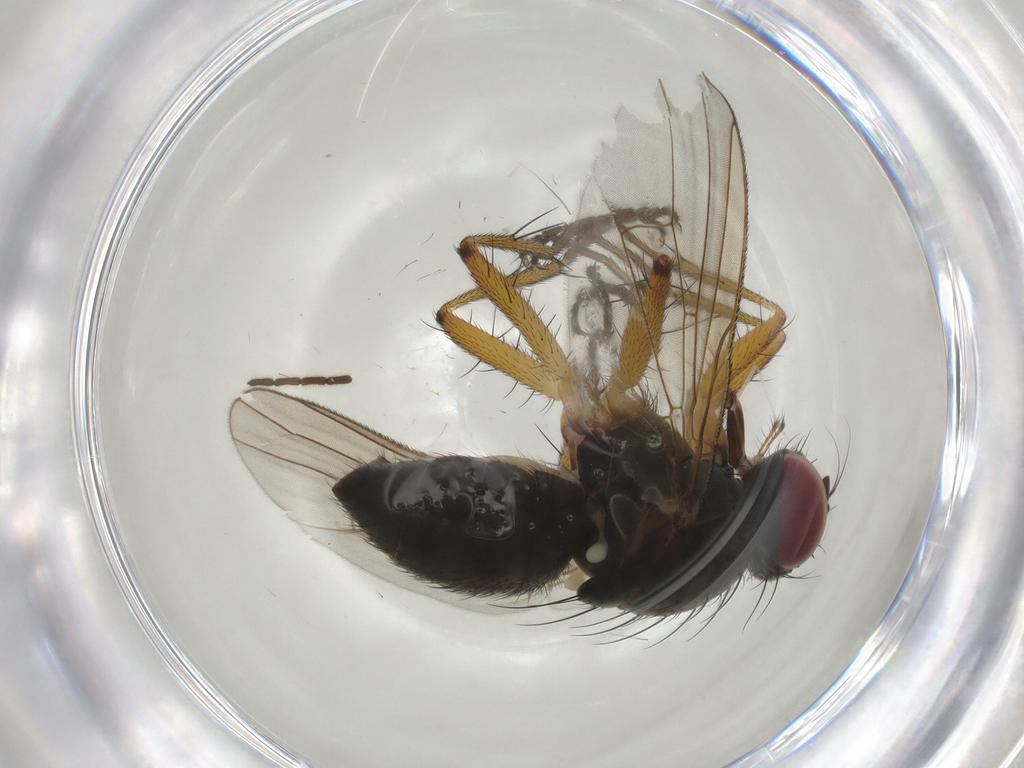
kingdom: Animalia
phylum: Arthropoda
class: Insecta
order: Diptera
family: Muscidae
